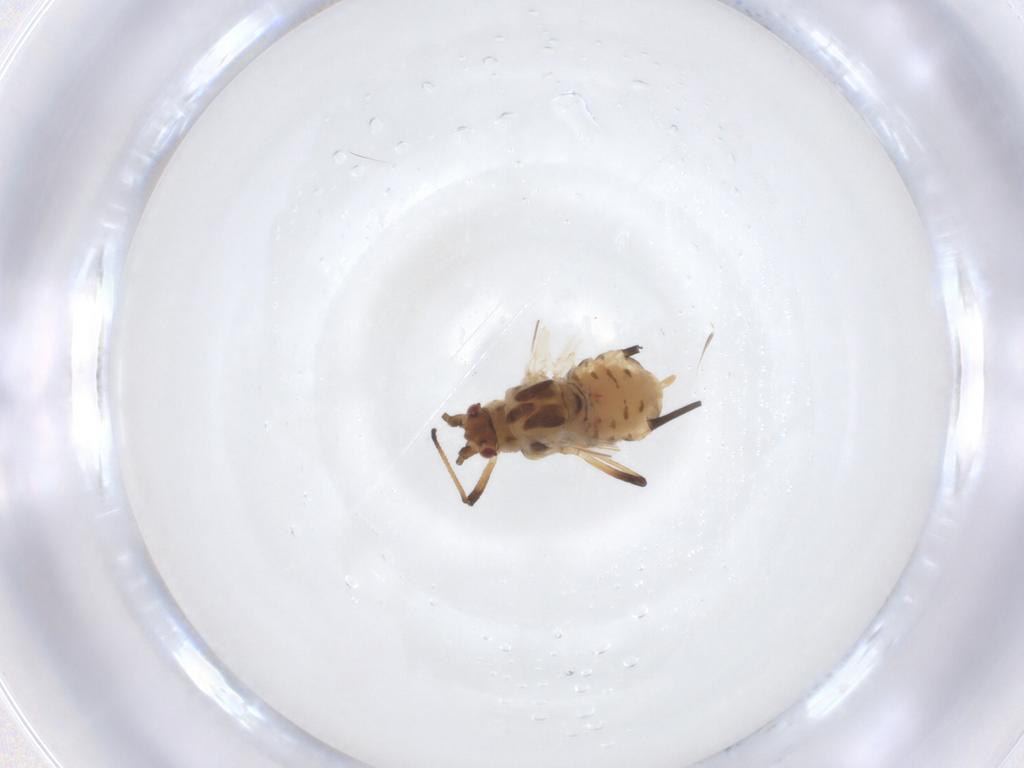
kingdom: Animalia
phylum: Arthropoda
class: Insecta
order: Hemiptera
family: Aphididae
